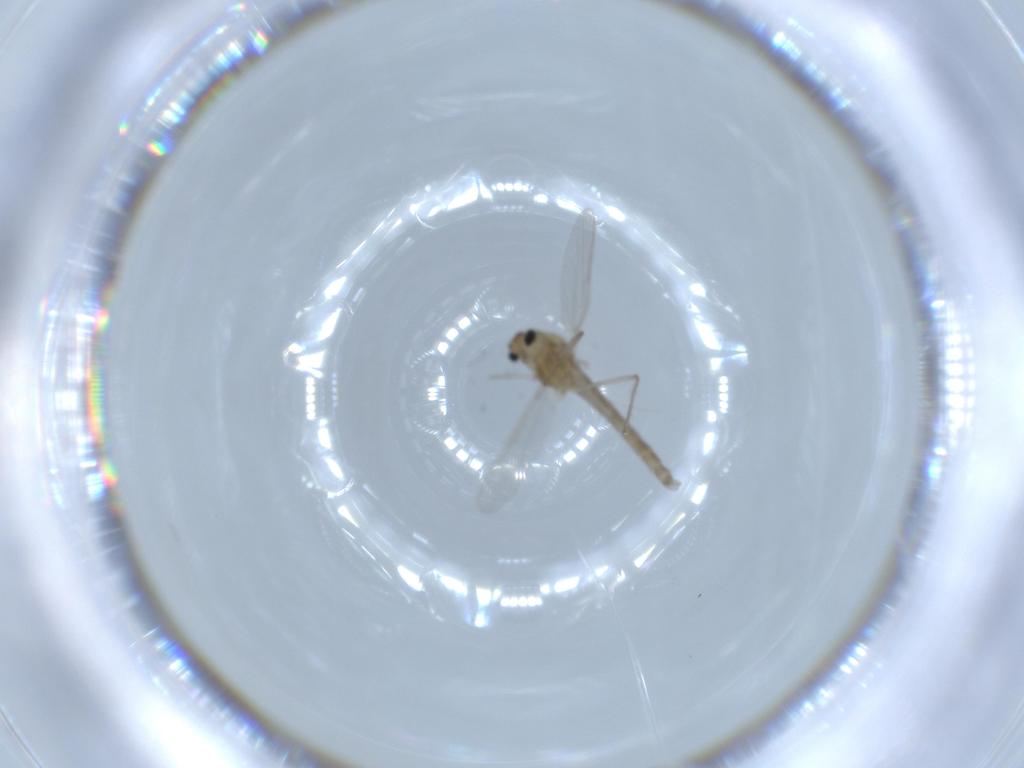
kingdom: Animalia
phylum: Arthropoda
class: Insecta
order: Diptera
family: Chironomidae
